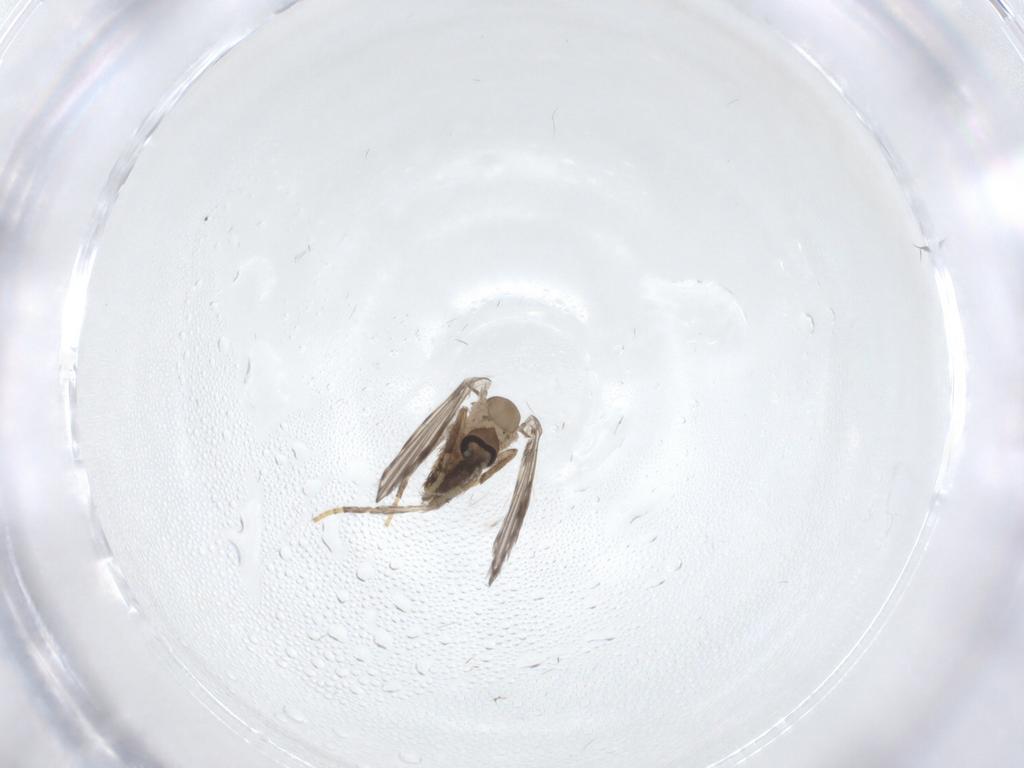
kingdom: Animalia
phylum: Arthropoda
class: Insecta
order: Diptera
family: Psychodidae
